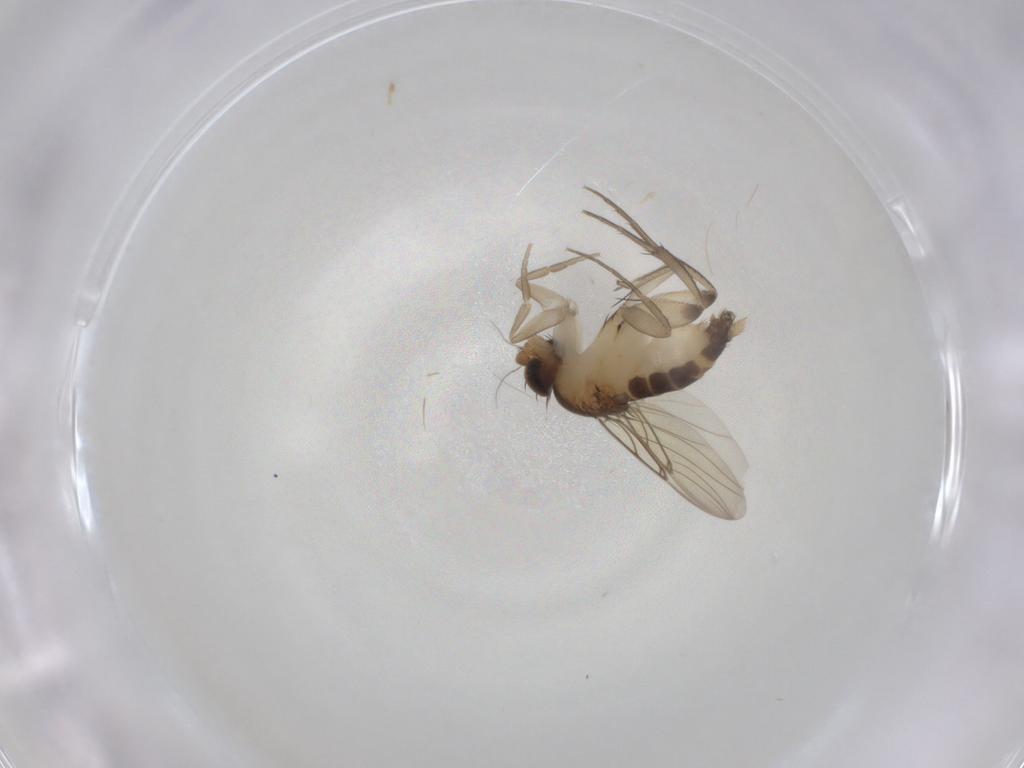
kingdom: Animalia
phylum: Arthropoda
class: Insecta
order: Diptera
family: Phoridae
